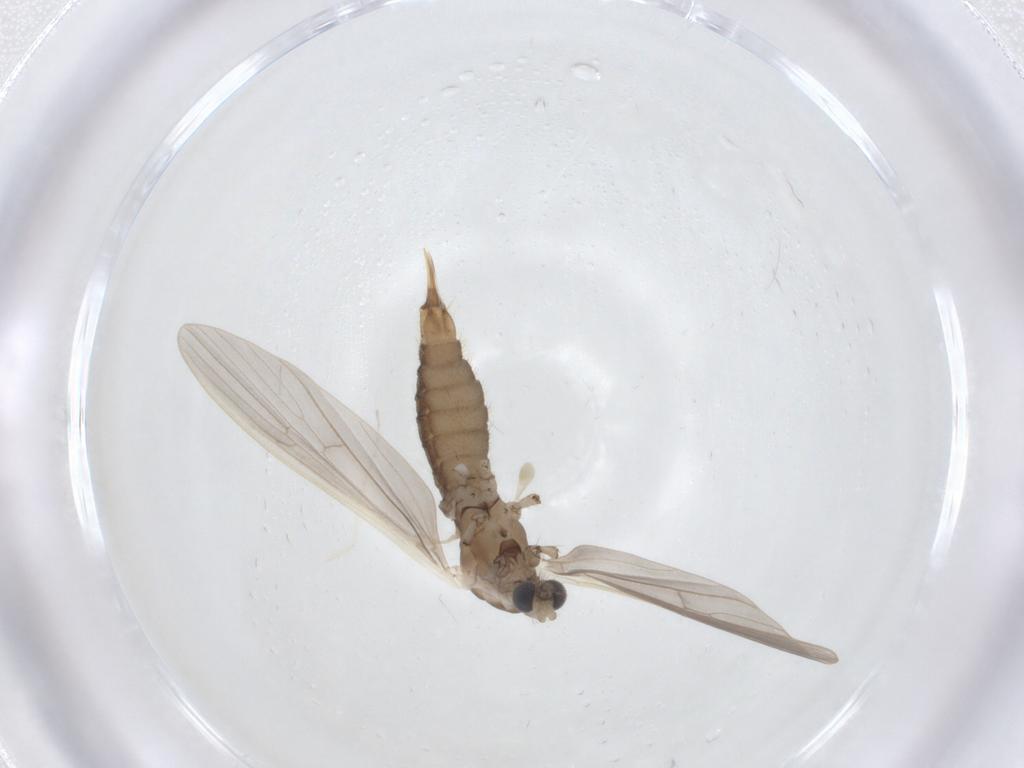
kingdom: Animalia
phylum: Arthropoda
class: Insecta
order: Diptera
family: Limoniidae
